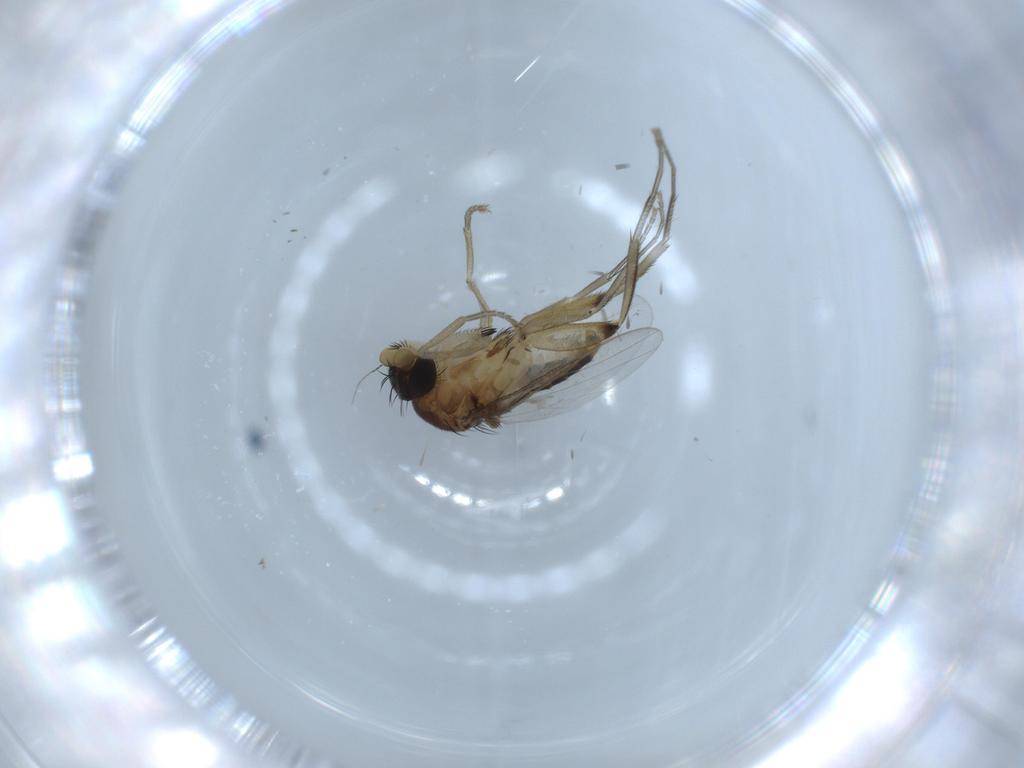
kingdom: Animalia
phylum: Arthropoda
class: Insecta
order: Diptera
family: Phoridae
